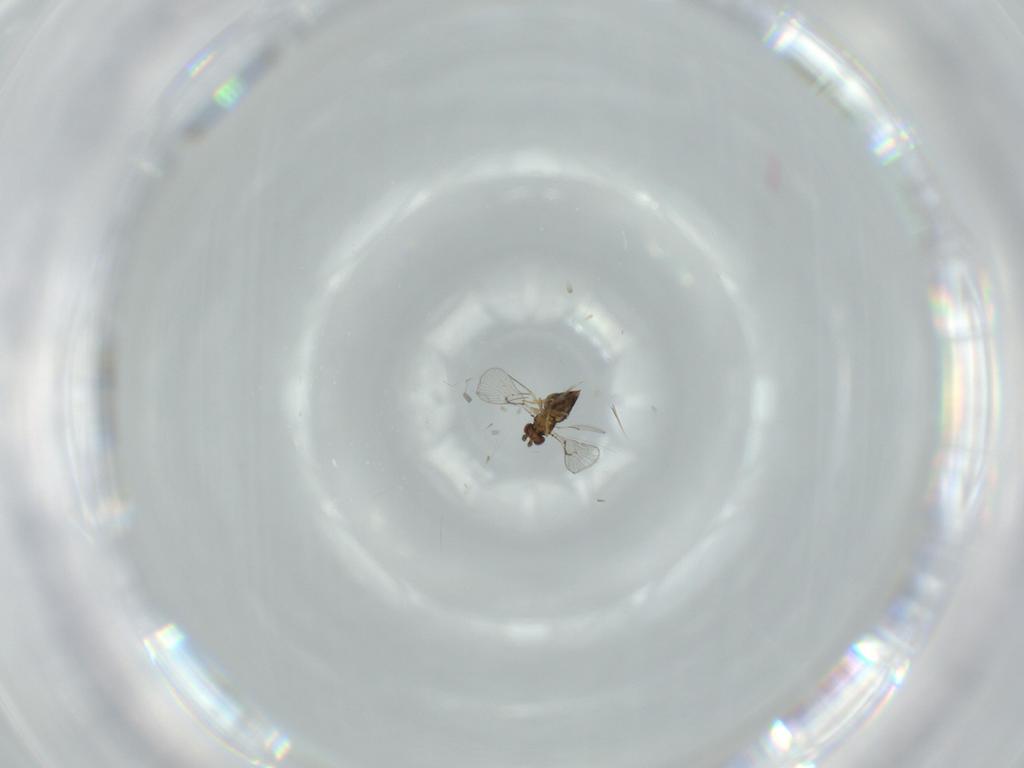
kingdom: Animalia
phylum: Arthropoda
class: Insecta
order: Hymenoptera
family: Trichogrammatidae
